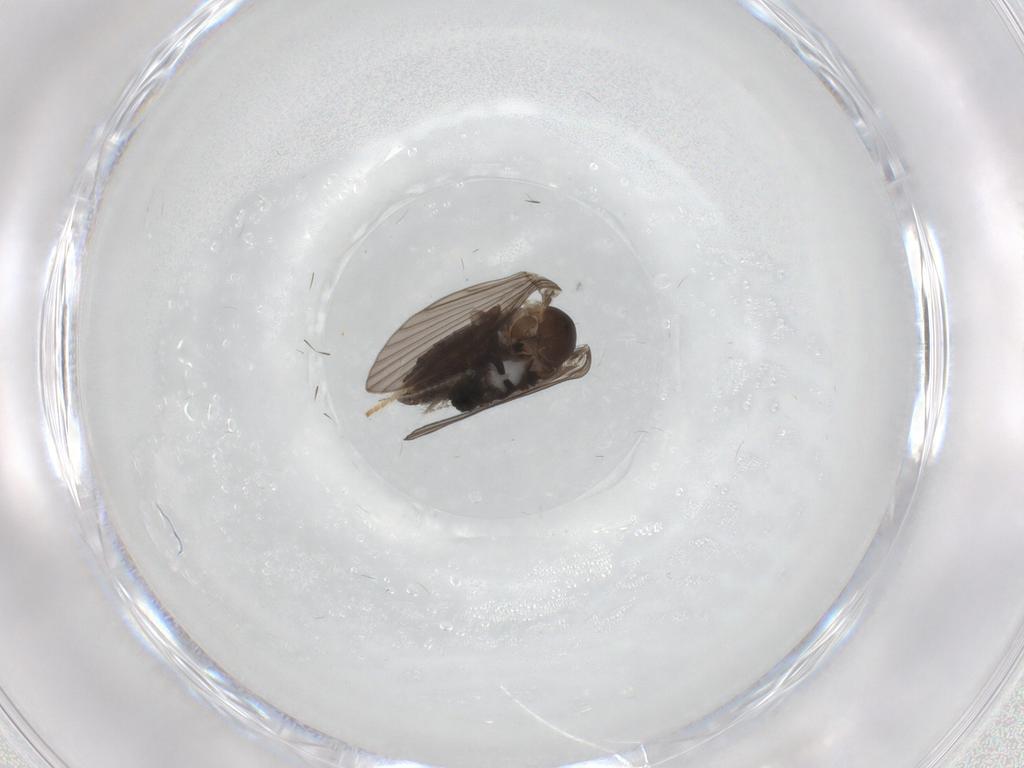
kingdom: Animalia
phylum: Arthropoda
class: Insecta
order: Diptera
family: Psychodidae
